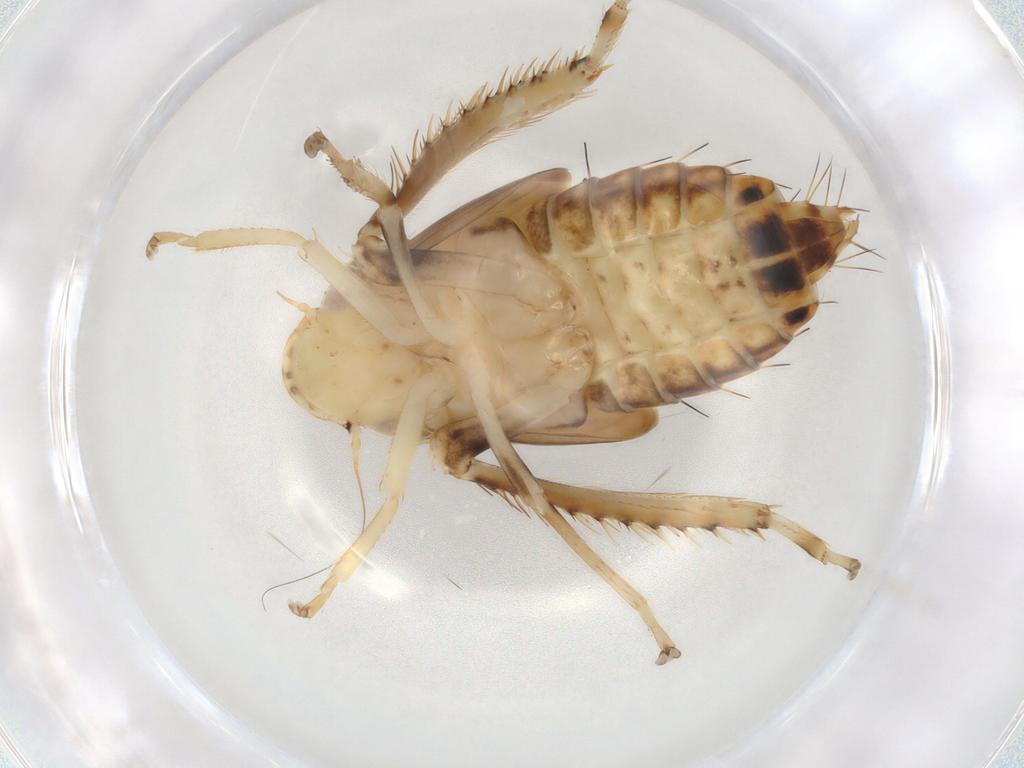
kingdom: Animalia
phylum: Arthropoda
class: Insecta
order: Hemiptera
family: Cicadellidae
